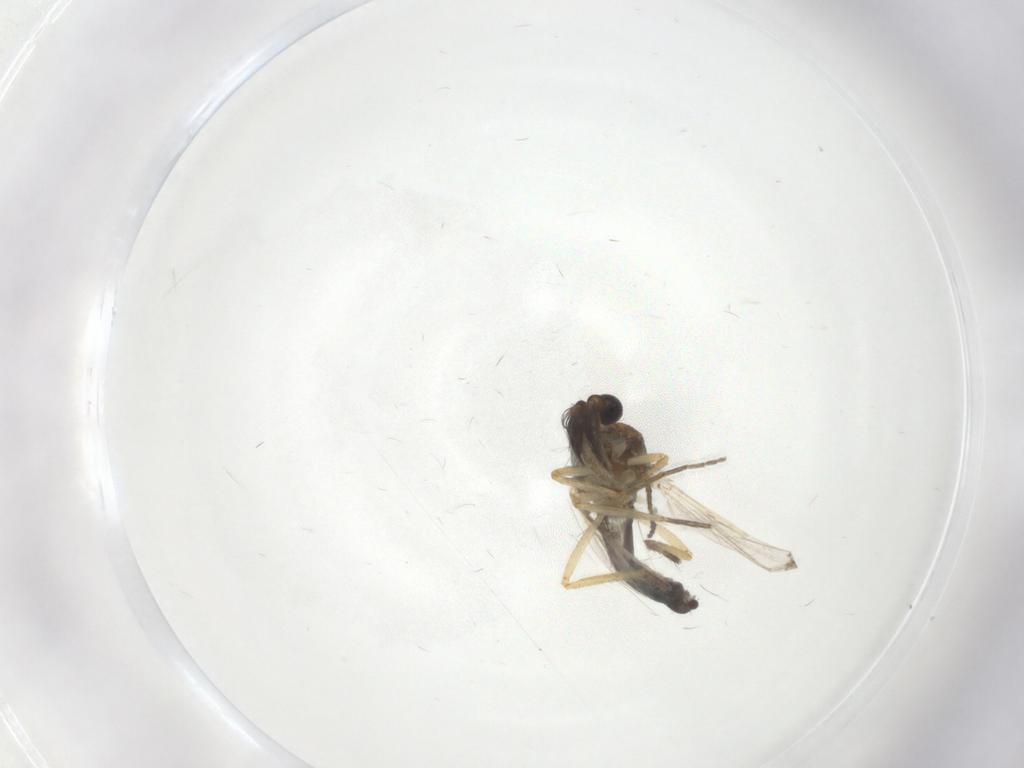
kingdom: Animalia
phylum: Arthropoda
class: Insecta
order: Diptera
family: Ceratopogonidae
